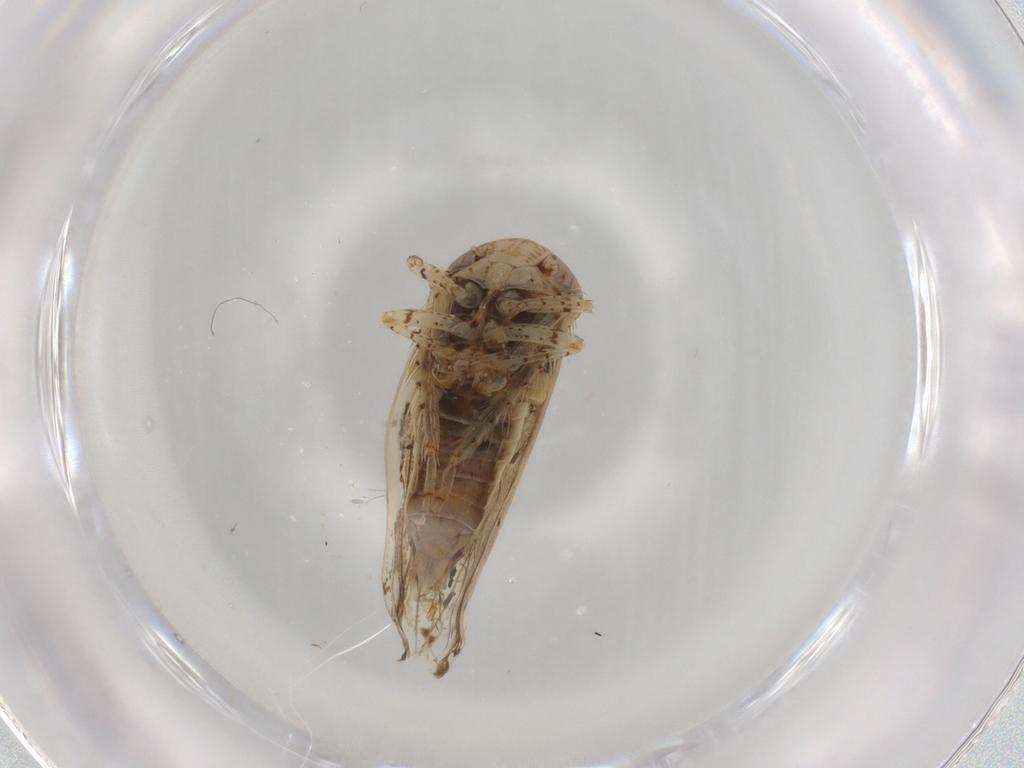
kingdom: Animalia
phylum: Arthropoda
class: Insecta
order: Hemiptera
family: Cicadellidae
